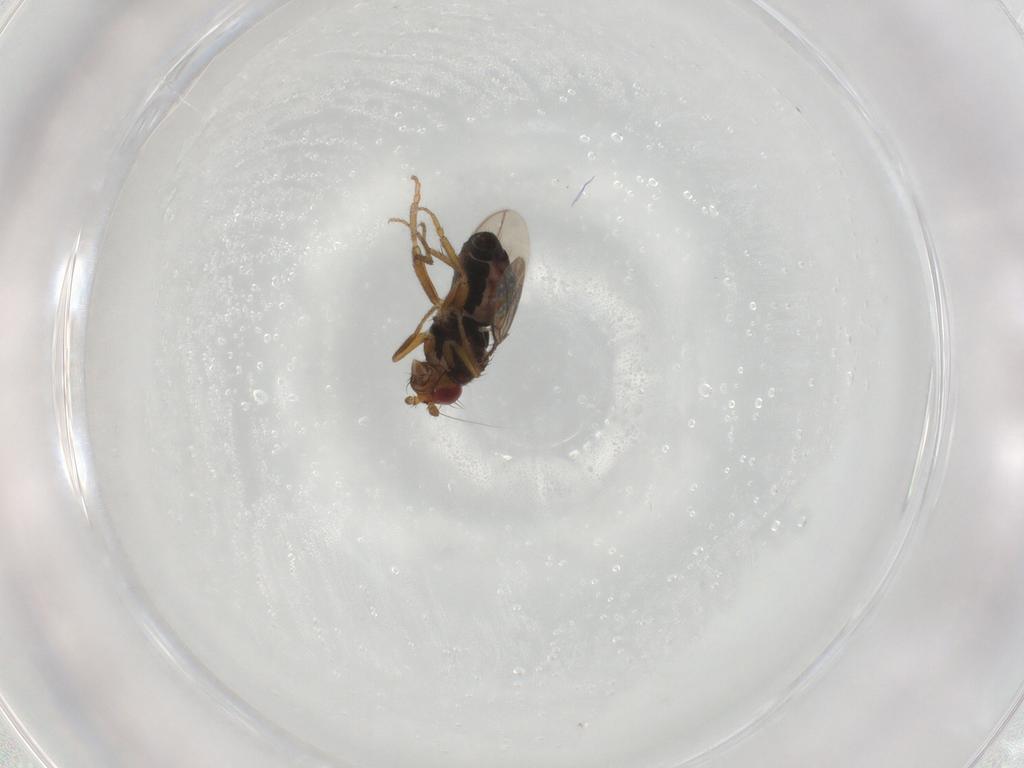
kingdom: Animalia
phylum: Arthropoda
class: Insecta
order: Diptera
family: Sphaeroceridae
